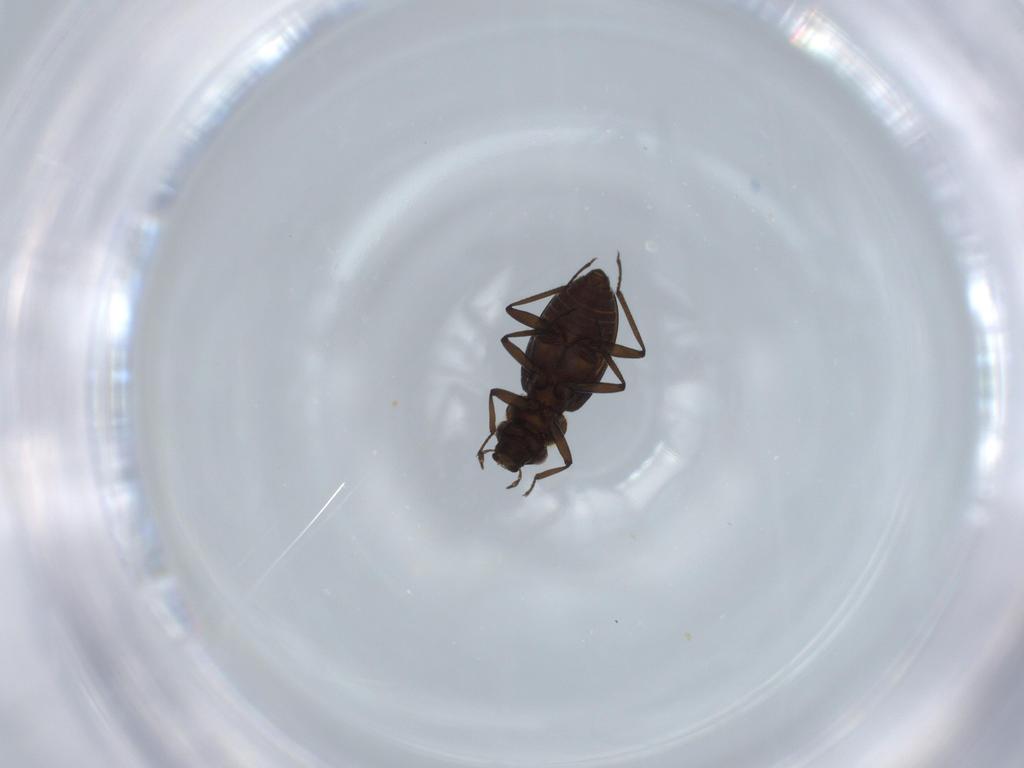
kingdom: Animalia
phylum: Arthropoda
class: Insecta
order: Coleoptera
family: Hydraenidae
